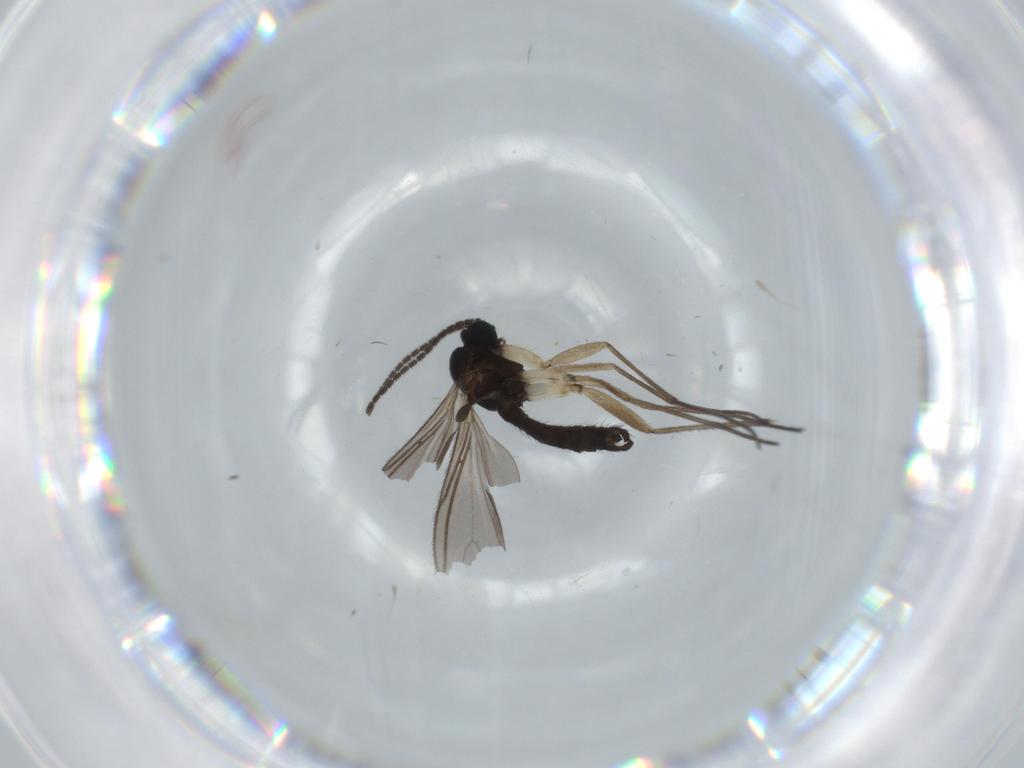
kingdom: Animalia
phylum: Arthropoda
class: Insecta
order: Diptera
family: Sciaridae
